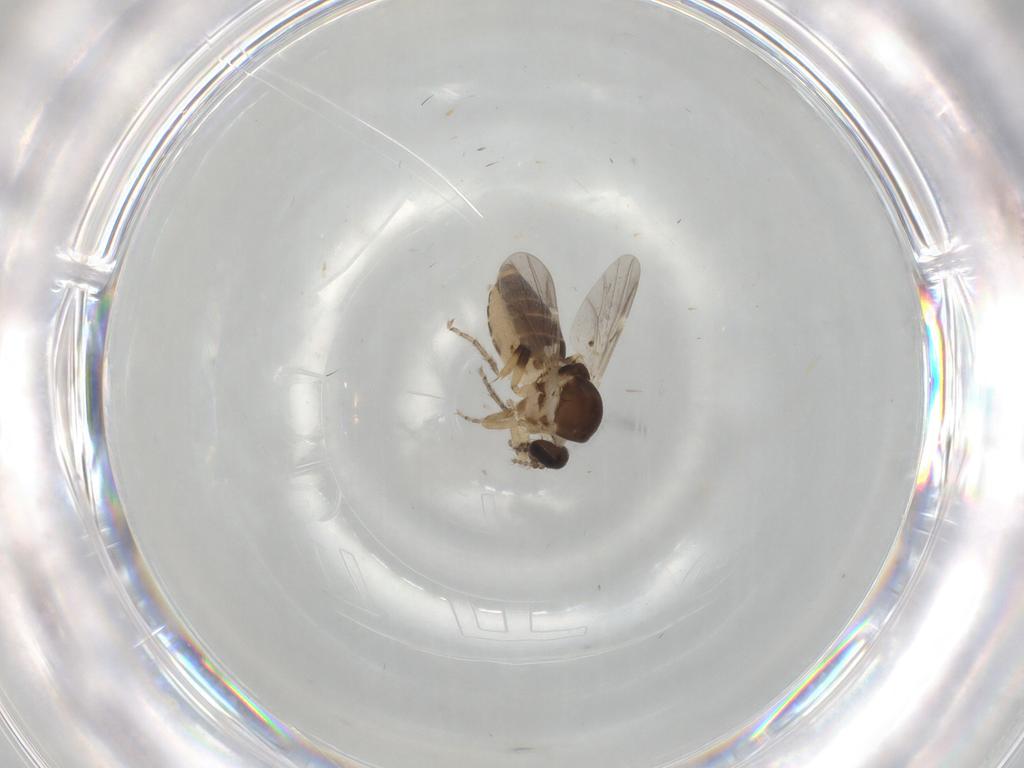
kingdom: Animalia
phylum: Arthropoda
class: Insecta
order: Diptera
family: Ceratopogonidae
